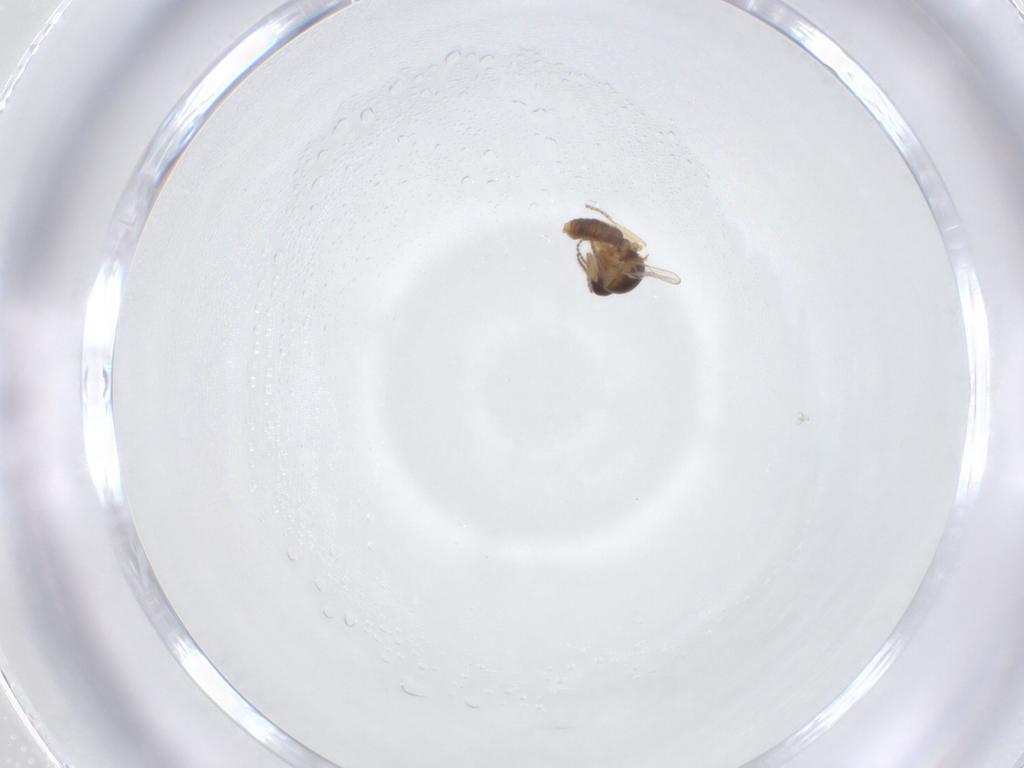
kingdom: Animalia
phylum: Arthropoda
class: Insecta
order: Diptera
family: Ceratopogonidae
